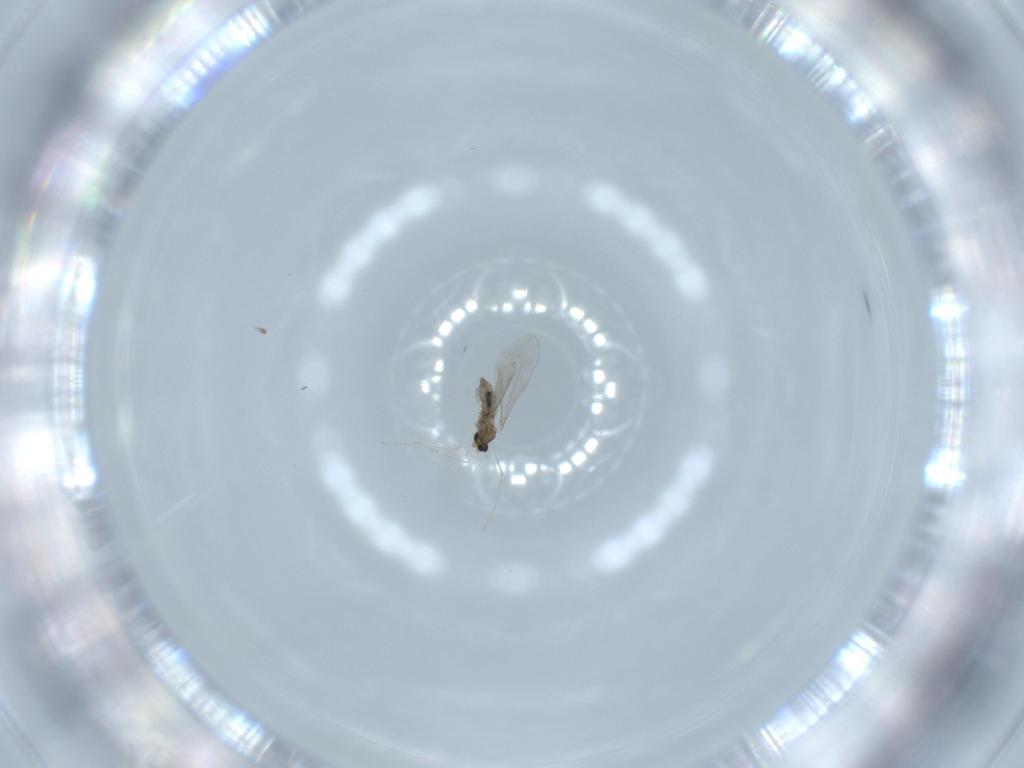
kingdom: Animalia
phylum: Arthropoda
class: Insecta
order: Diptera
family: Cecidomyiidae
